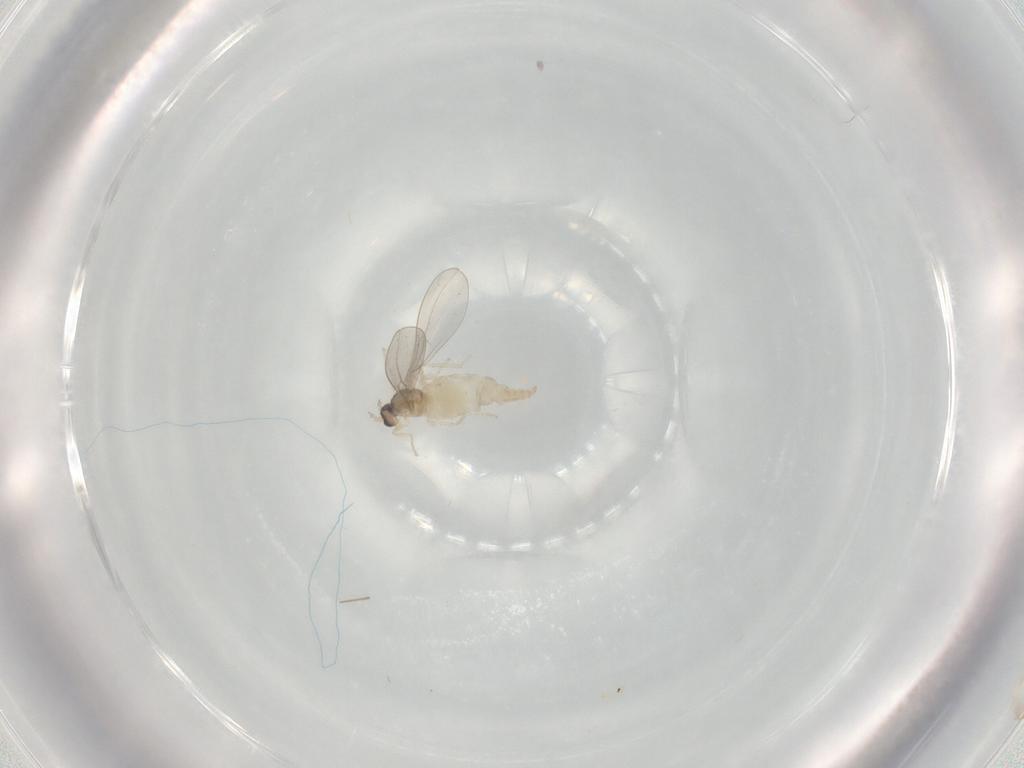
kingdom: Animalia
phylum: Arthropoda
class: Insecta
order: Diptera
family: Cecidomyiidae
